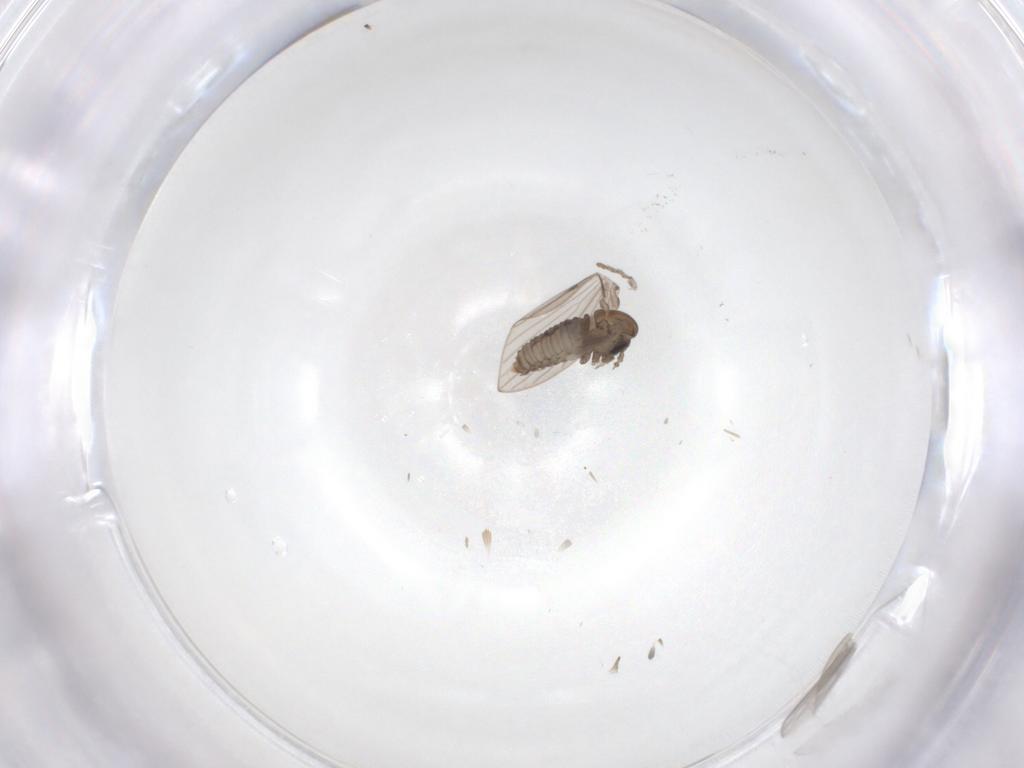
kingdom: Animalia
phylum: Arthropoda
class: Insecta
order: Diptera
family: Psychodidae
